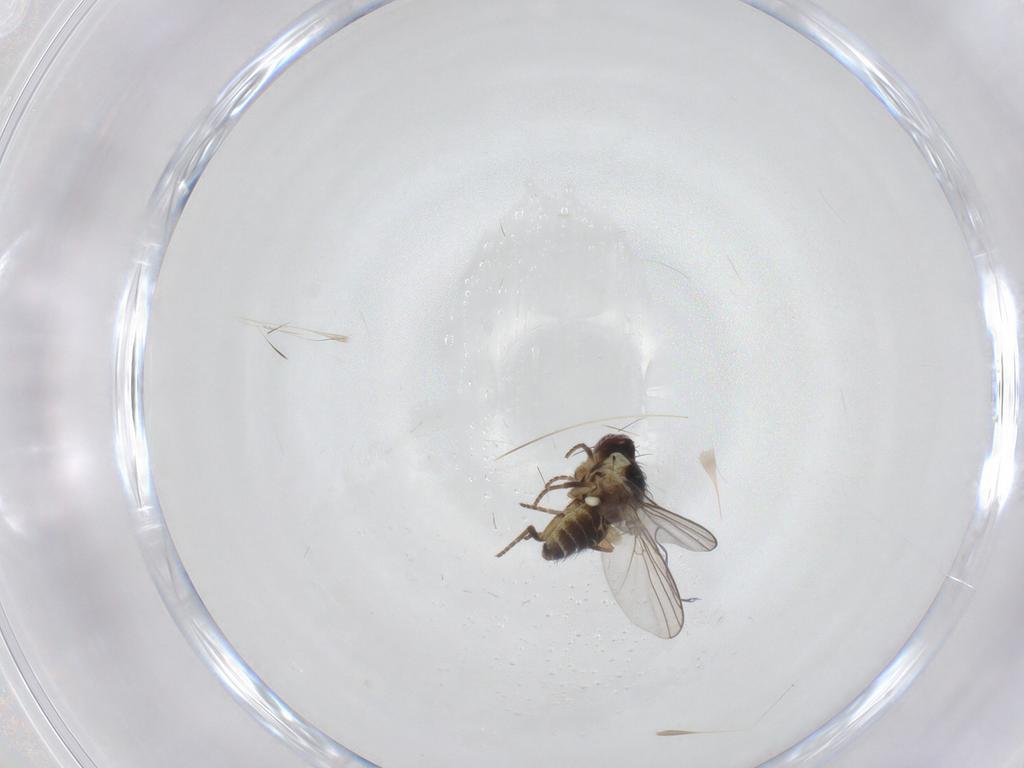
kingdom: Animalia
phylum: Arthropoda
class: Insecta
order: Diptera
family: Agromyzidae
